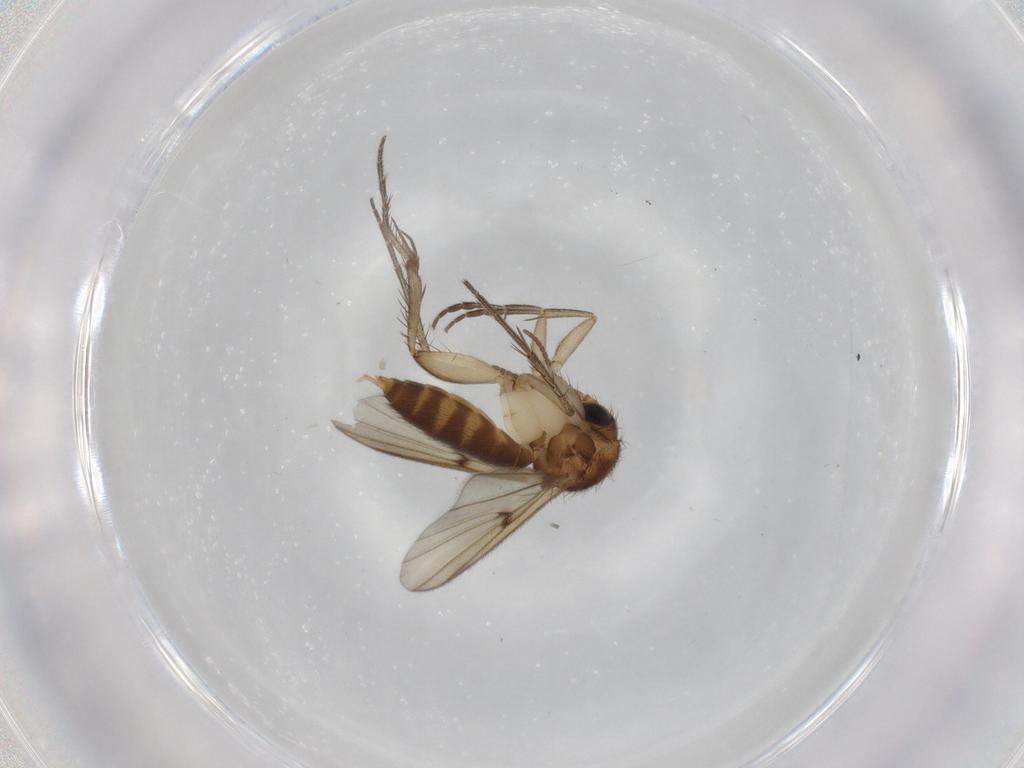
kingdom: Animalia
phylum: Arthropoda
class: Insecta
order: Diptera
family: Mycetophilidae
